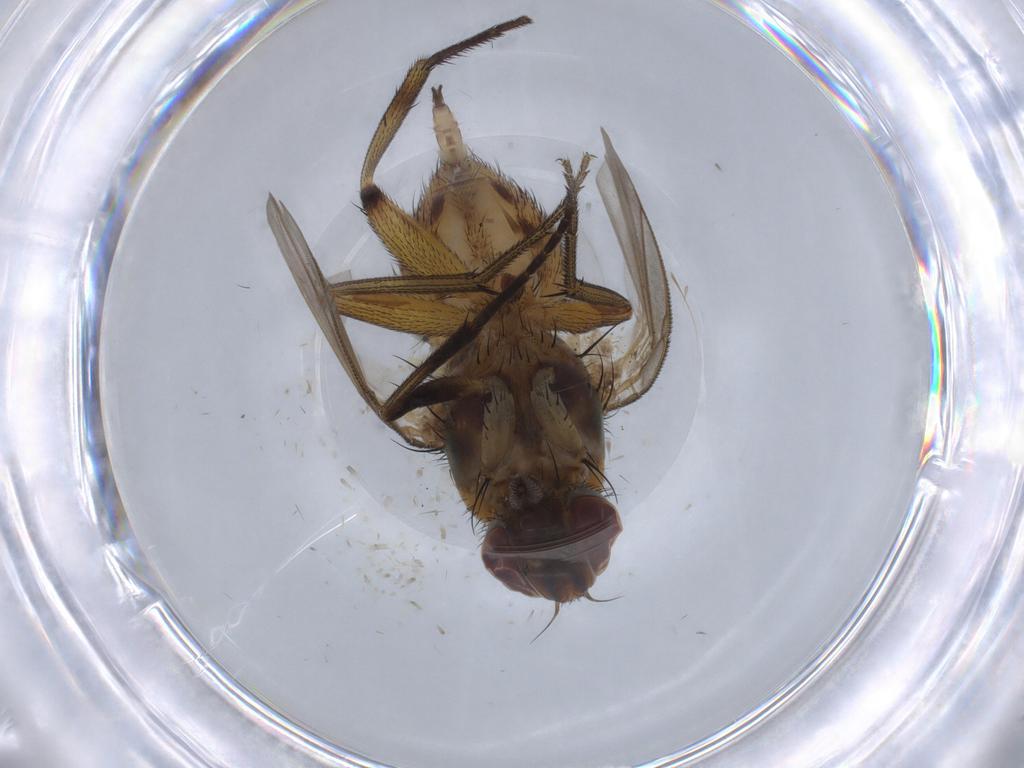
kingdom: Animalia
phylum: Arthropoda
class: Insecta
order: Diptera
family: Muscidae
